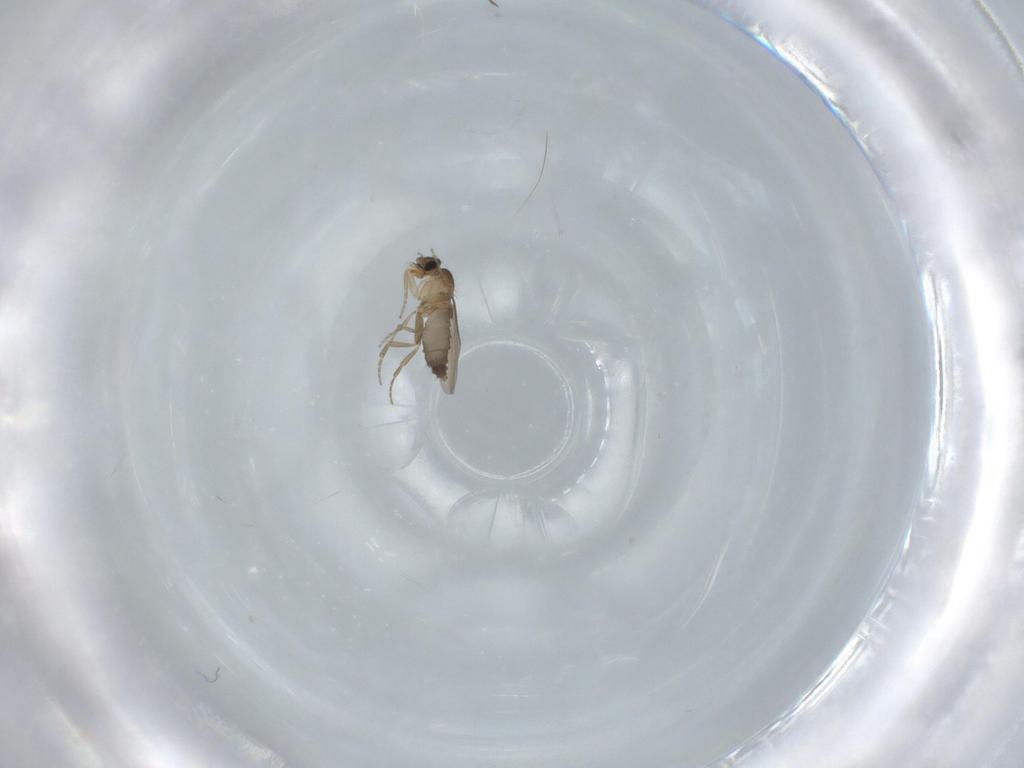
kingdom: Animalia
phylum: Arthropoda
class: Insecta
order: Diptera
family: Phoridae
